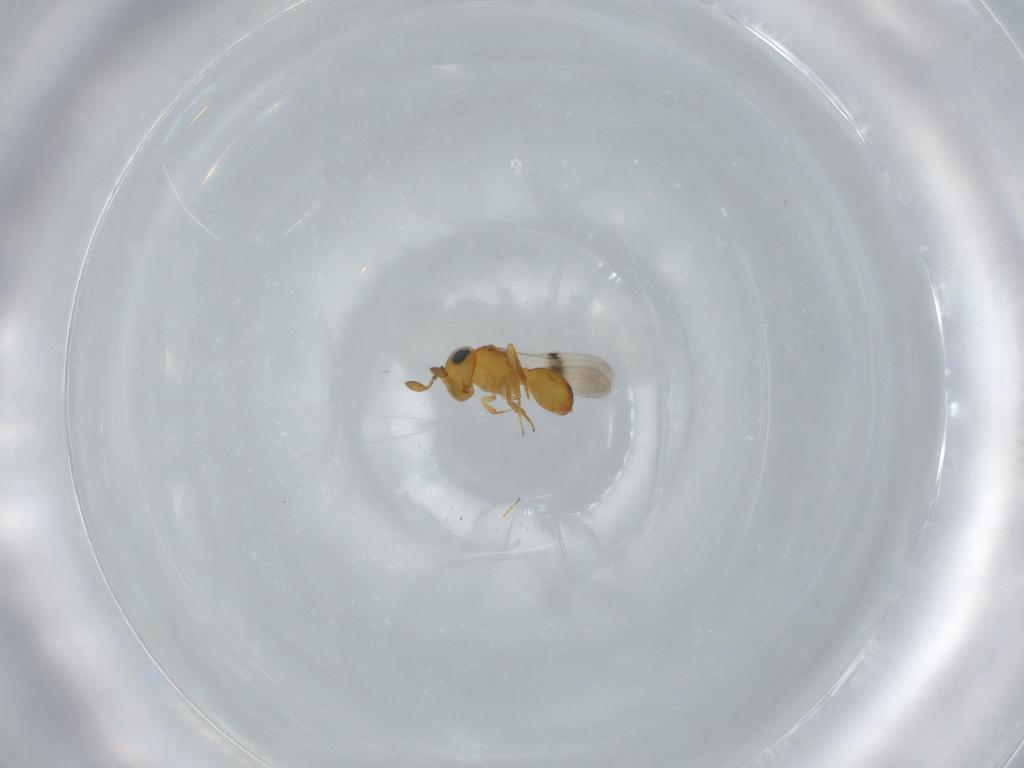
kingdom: Animalia
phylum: Arthropoda
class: Insecta
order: Hymenoptera
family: Scelionidae
